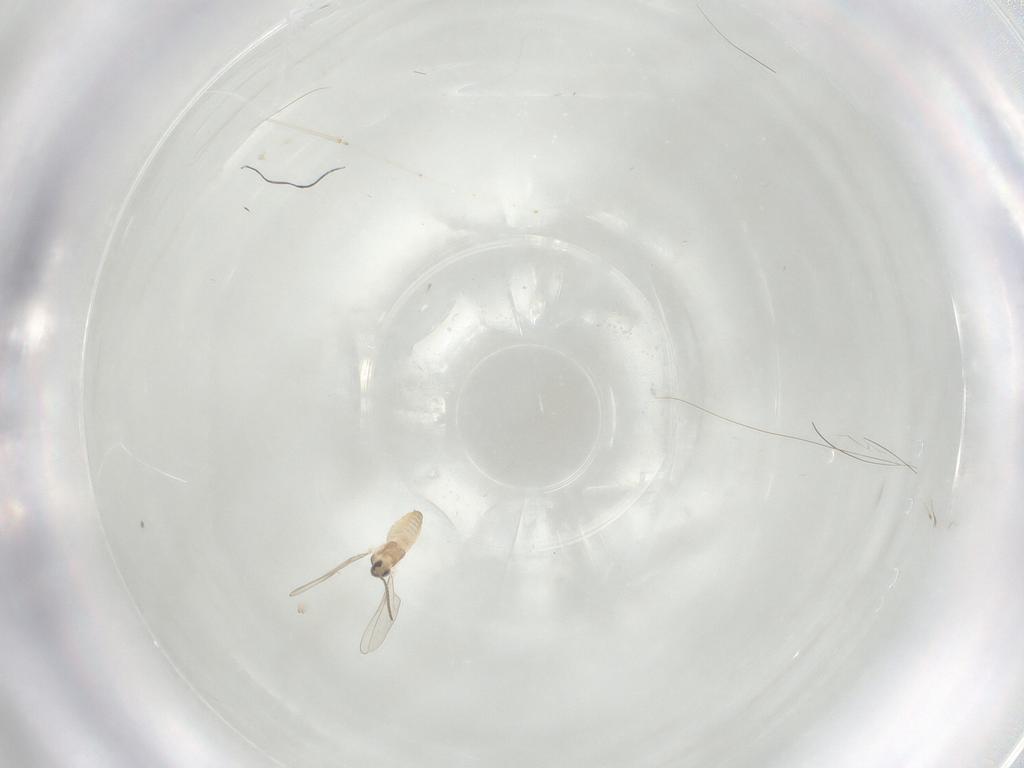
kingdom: Animalia
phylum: Arthropoda
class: Insecta
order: Diptera
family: Cecidomyiidae
